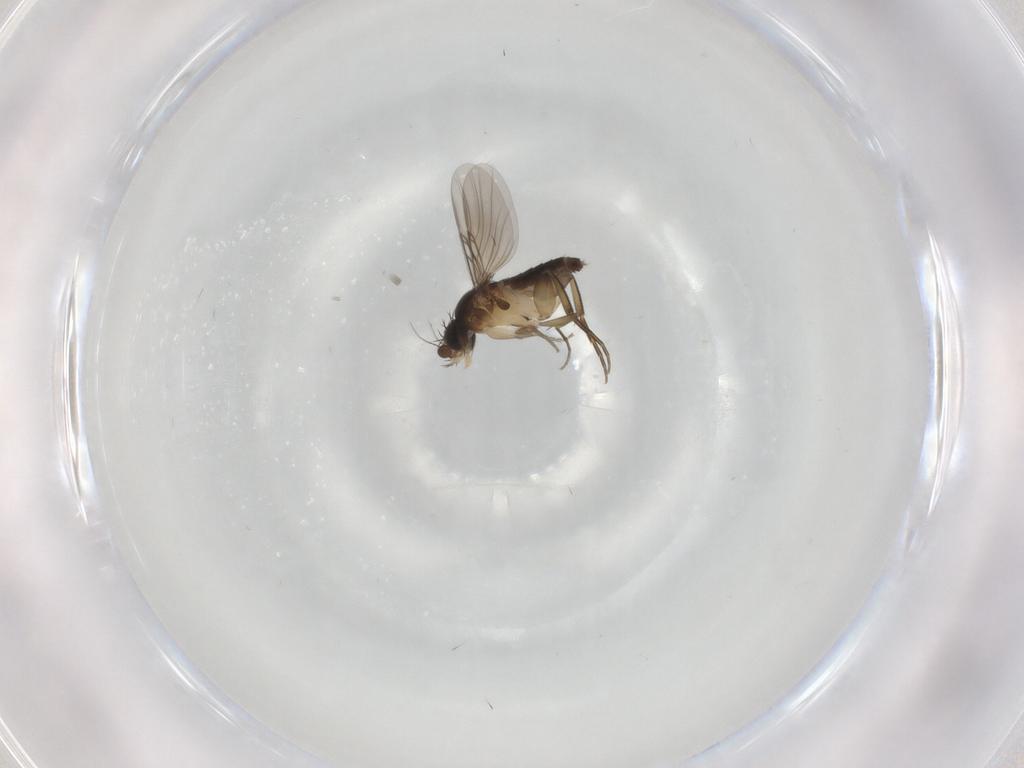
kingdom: Animalia
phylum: Arthropoda
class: Insecta
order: Diptera
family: Phoridae
